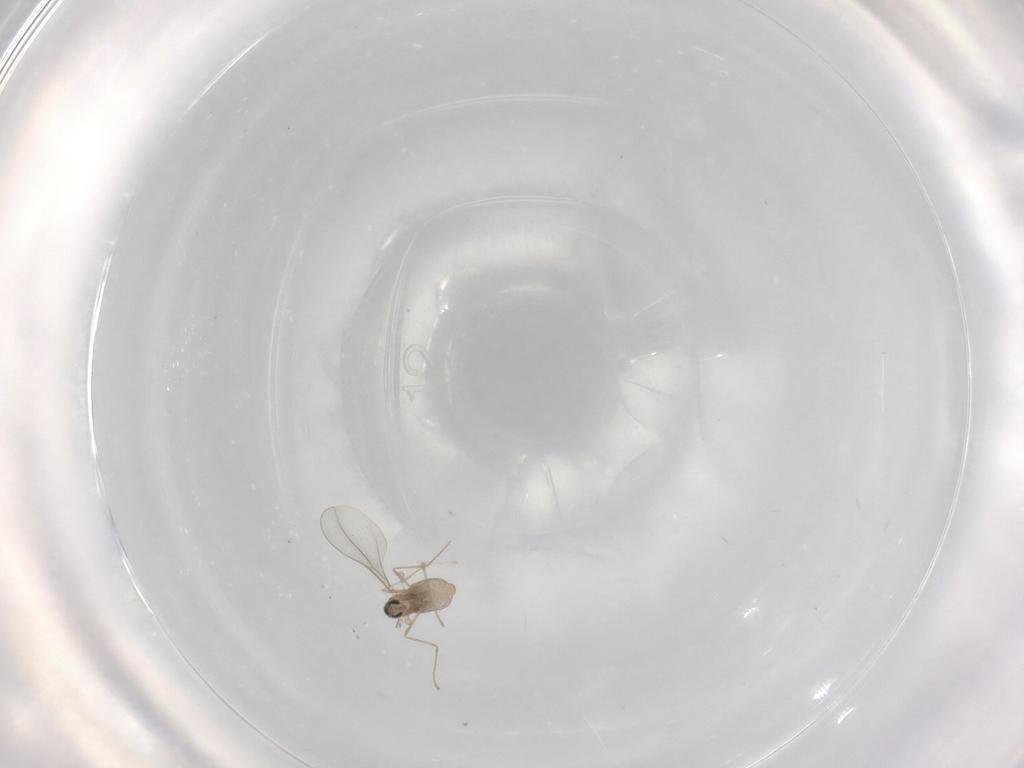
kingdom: Animalia
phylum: Arthropoda
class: Insecta
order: Diptera
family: Cecidomyiidae
